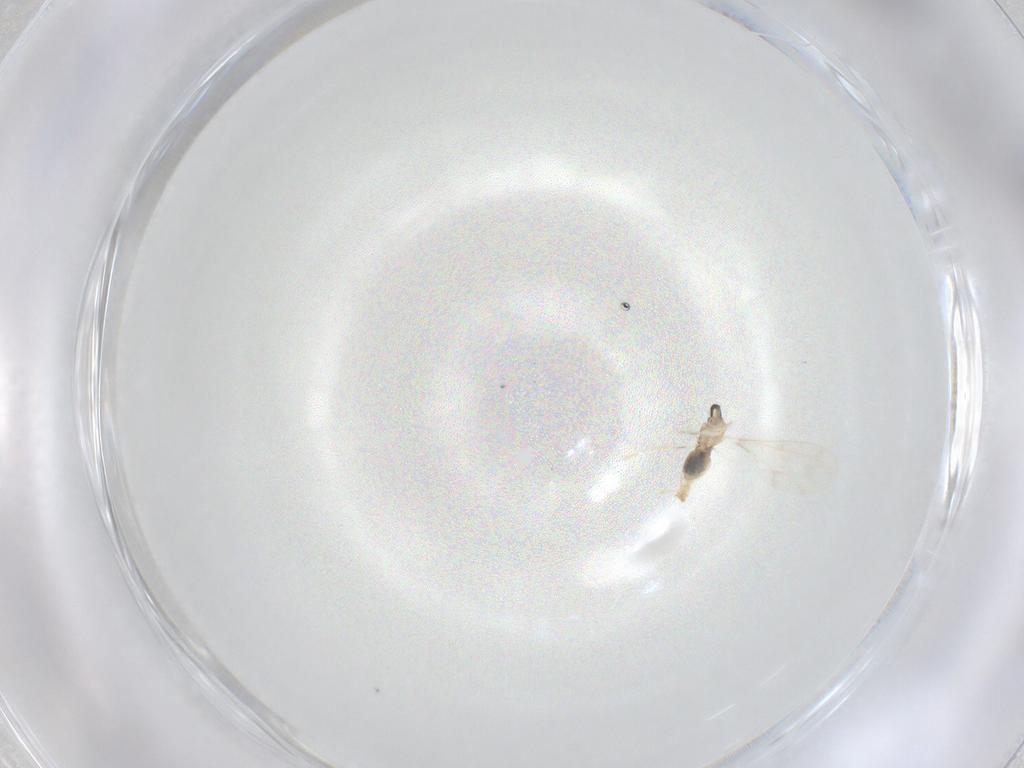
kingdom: Animalia
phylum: Arthropoda
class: Insecta
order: Diptera
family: Cecidomyiidae
